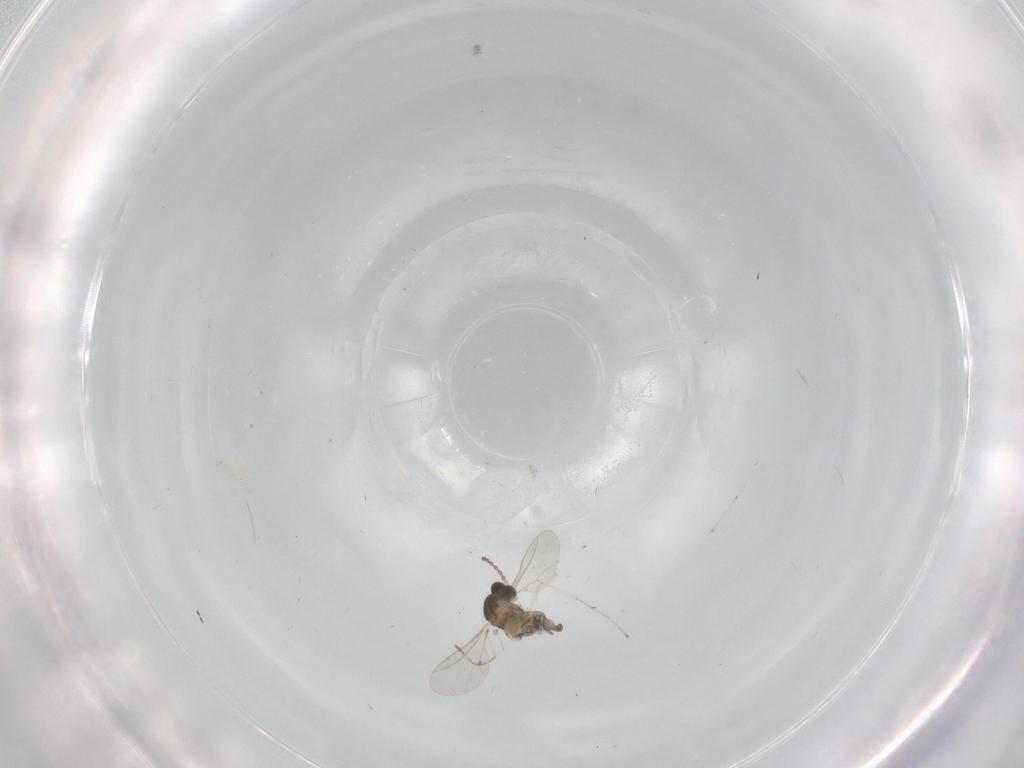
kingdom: Animalia
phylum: Arthropoda
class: Insecta
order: Diptera
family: Cecidomyiidae
